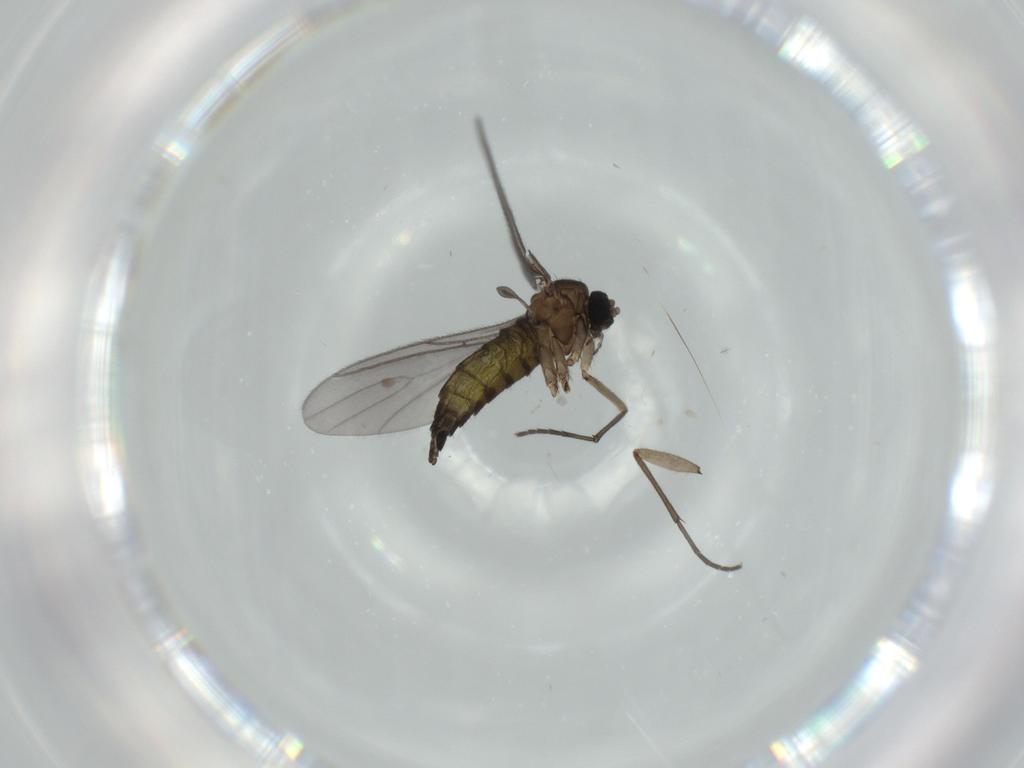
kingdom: Animalia
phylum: Arthropoda
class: Insecta
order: Diptera
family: Sciaridae
